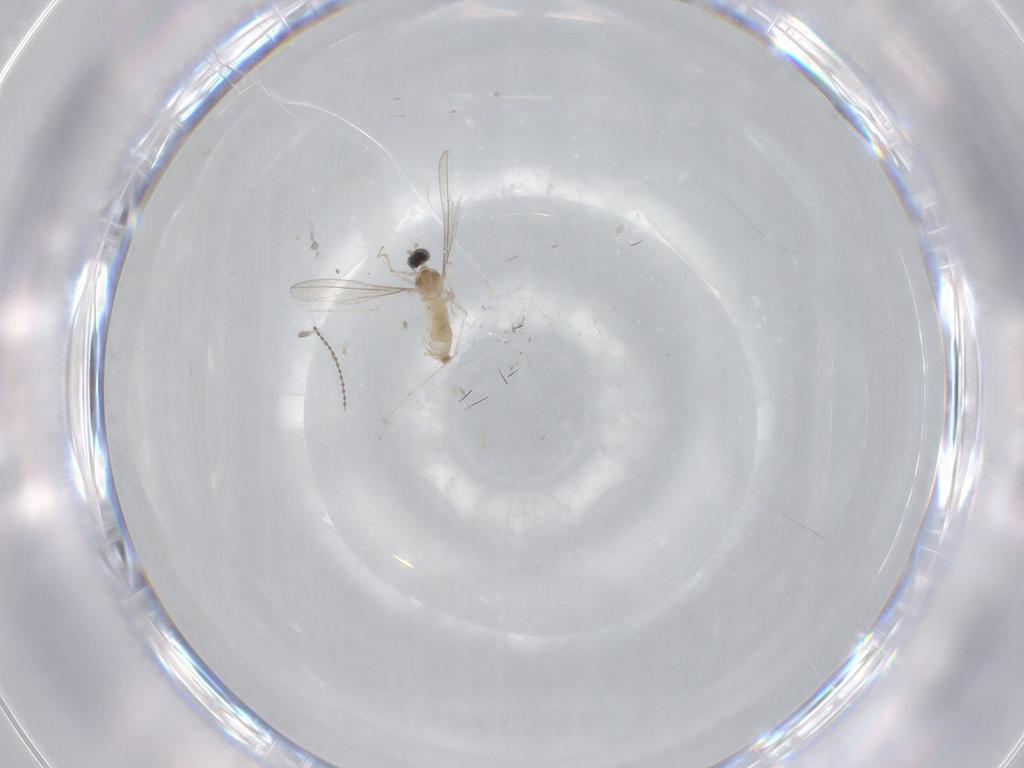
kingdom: Animalia
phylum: Arthropoda
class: Insecta
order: Diptera
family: Cecidomyiidae
